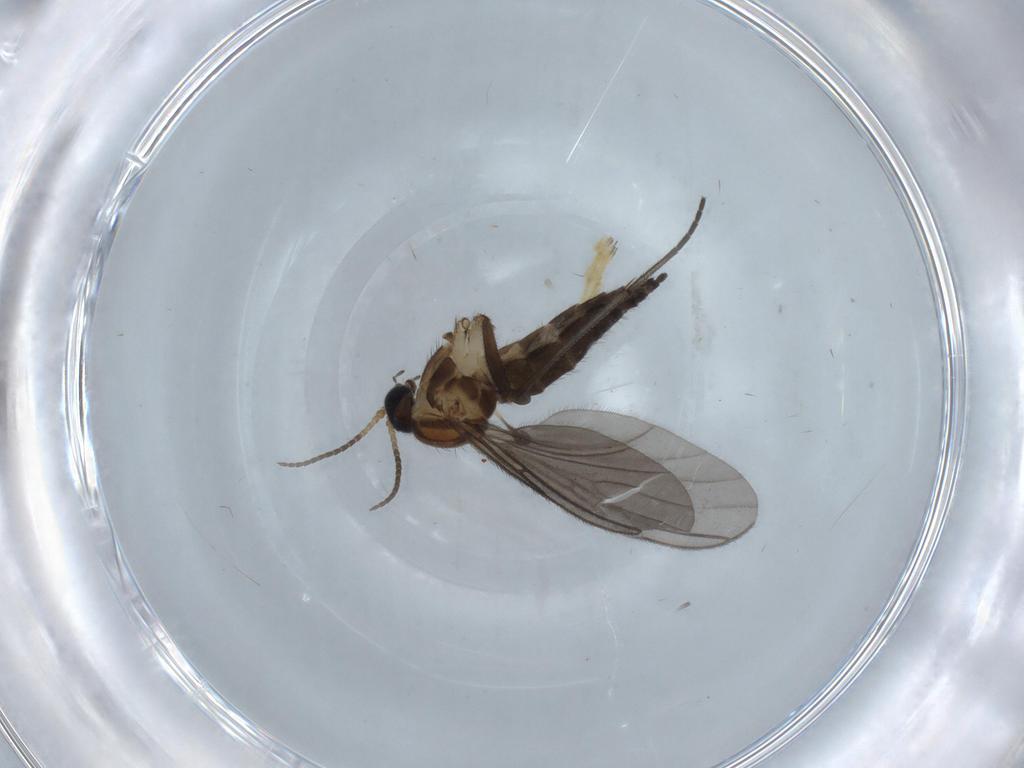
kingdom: Animalia
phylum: Arthropoda
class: Insecta
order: Diptera
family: Sciaridae
